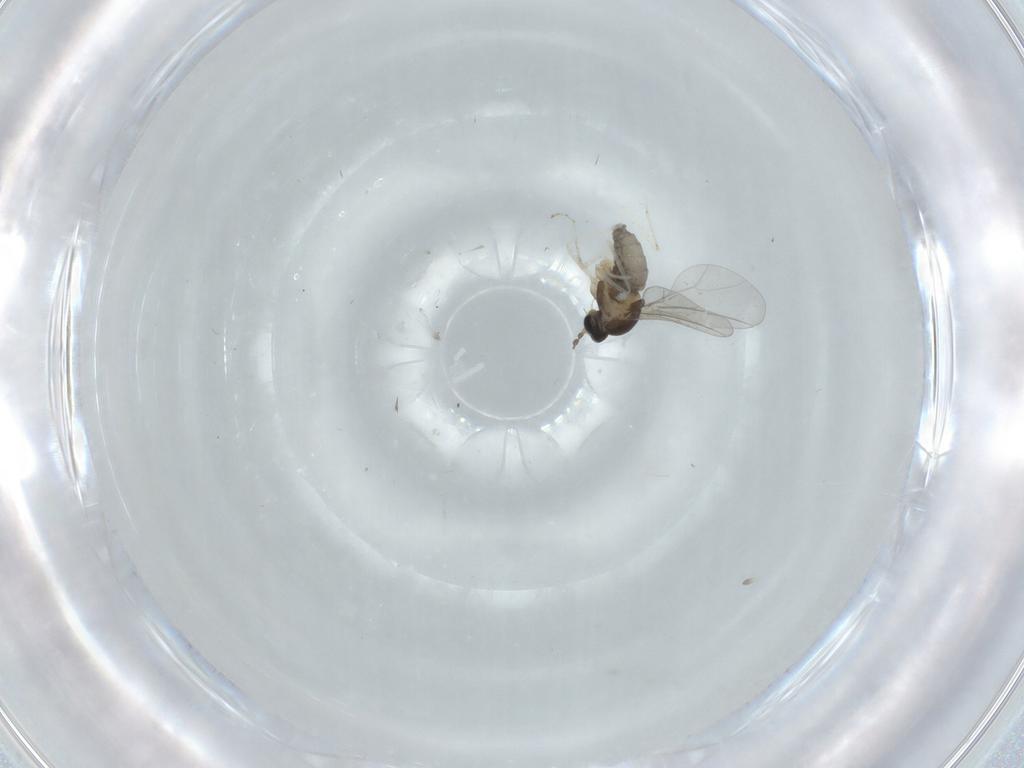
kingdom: Animalia
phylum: Arthropoda
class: Insecta
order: Diptera
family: Cecidomyiidae
